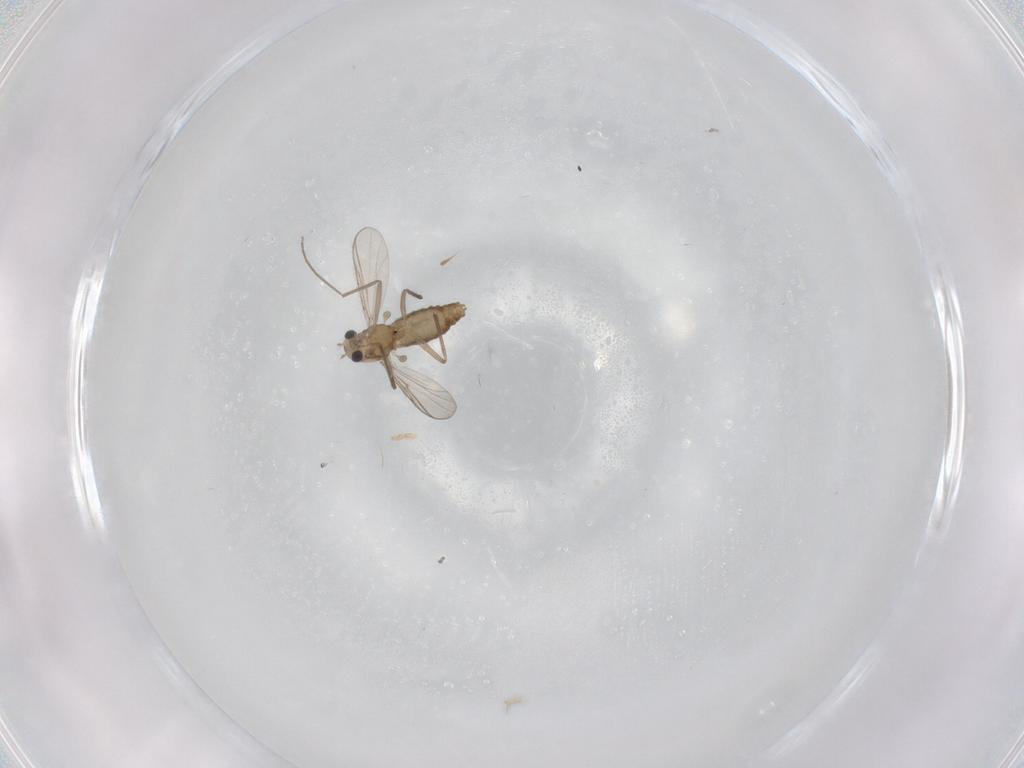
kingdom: Animalia
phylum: Arthropoda
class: Insecta
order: Diptera
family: Chironomidae
